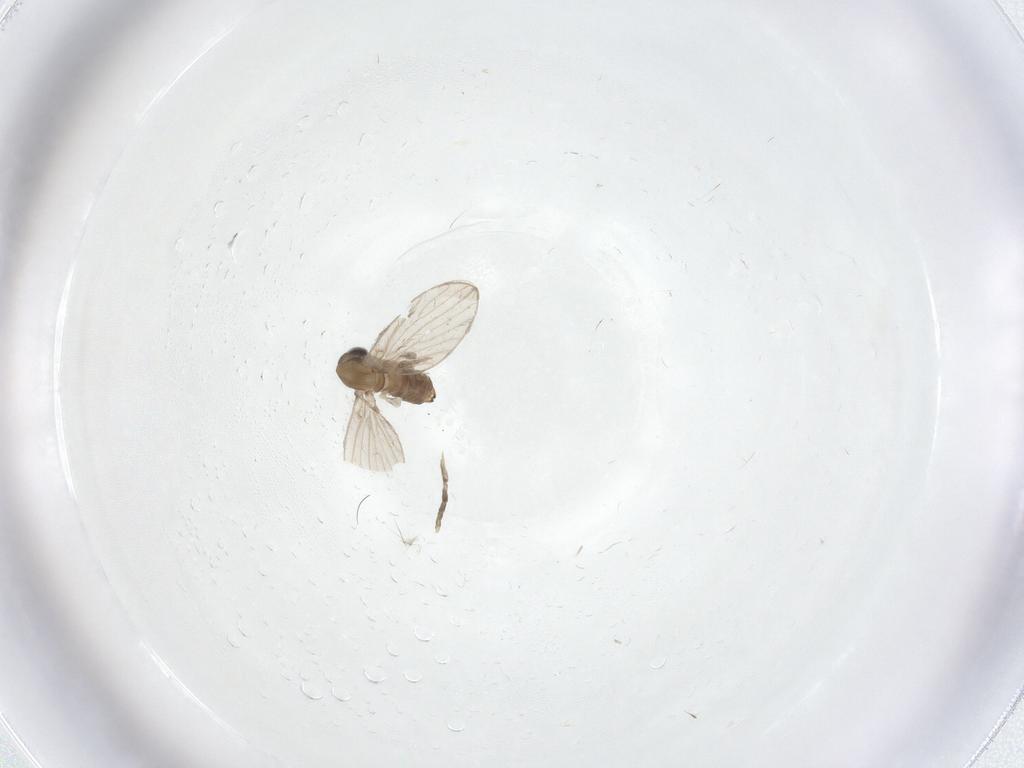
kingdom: Animalia
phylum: Arthropoda
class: Insecta
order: Diptera
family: Psychodidae
